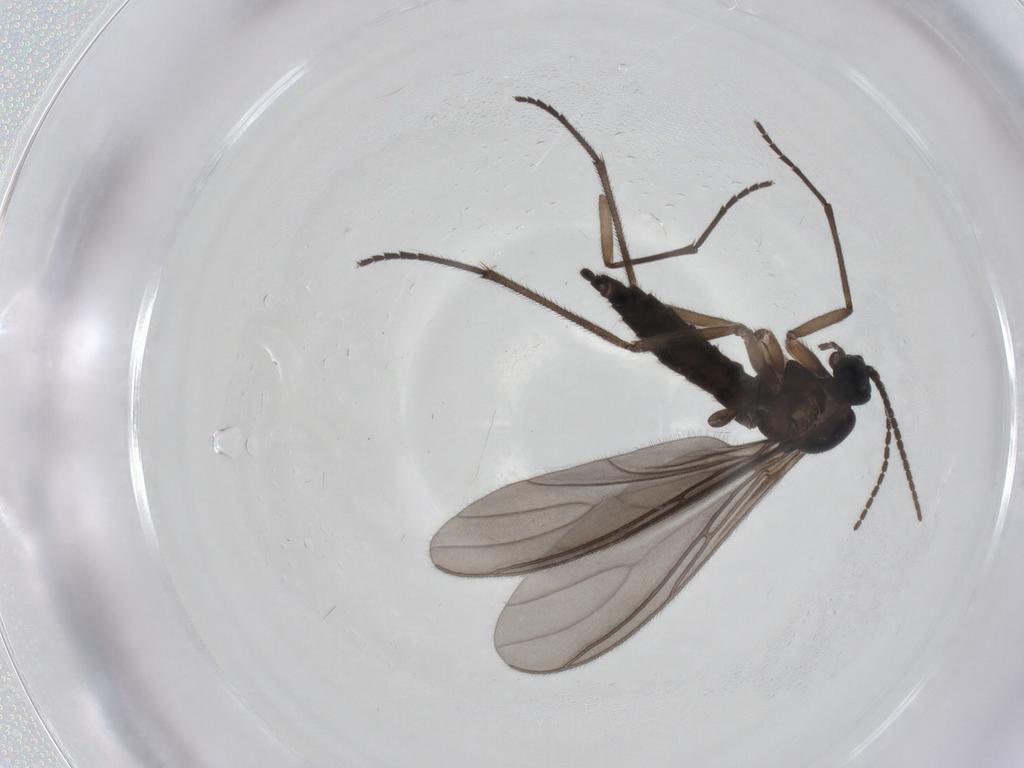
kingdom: Animalia
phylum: Arthropoda
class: Insecta
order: Diptera
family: Sciaridae
